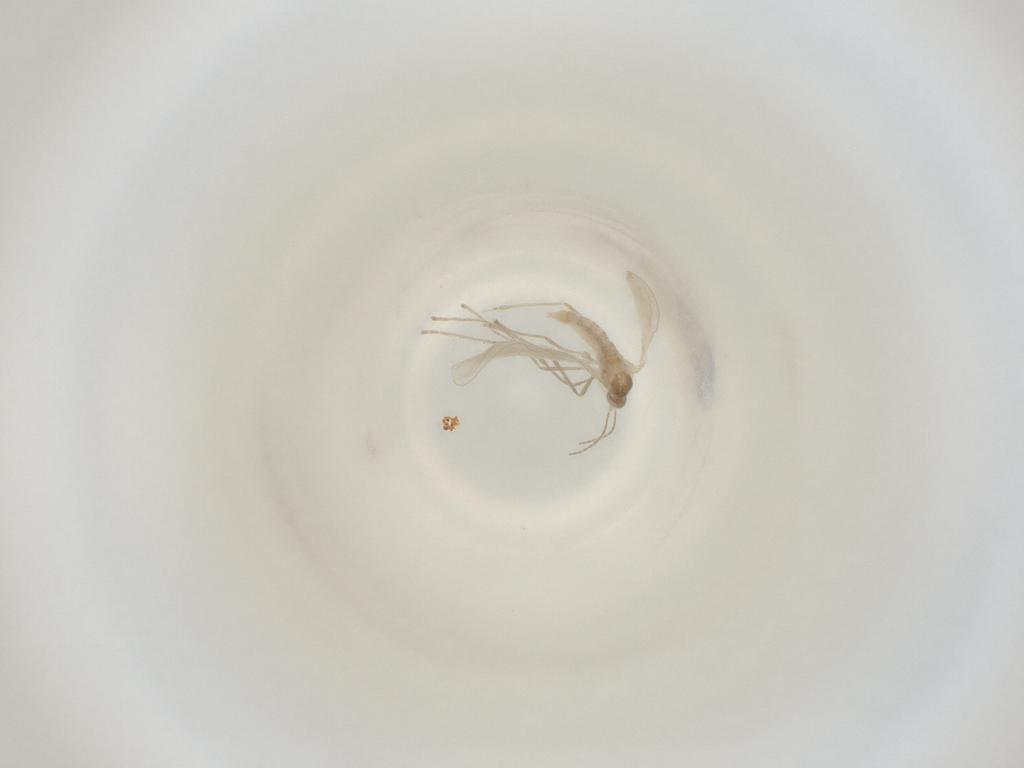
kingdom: Animalia
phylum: Arthropoda
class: Insecta
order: Diptera
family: Cecidomyiidae
